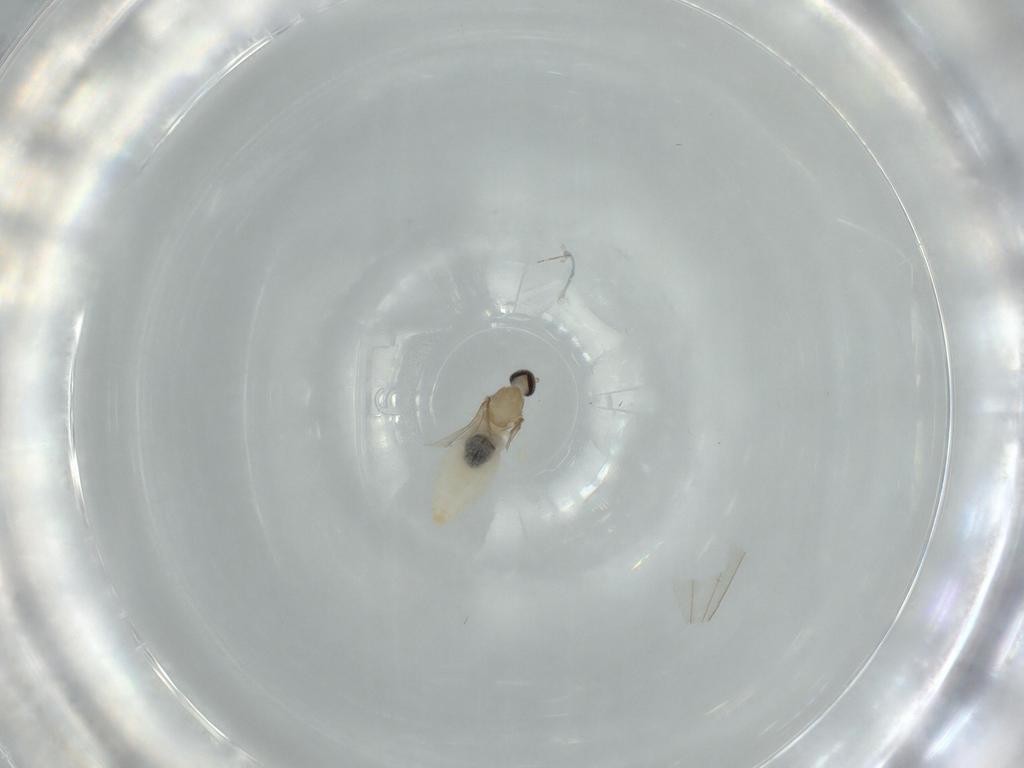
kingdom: Animalia
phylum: Arthropoda
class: Insecta
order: Diptera
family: Cecidomyiidae
